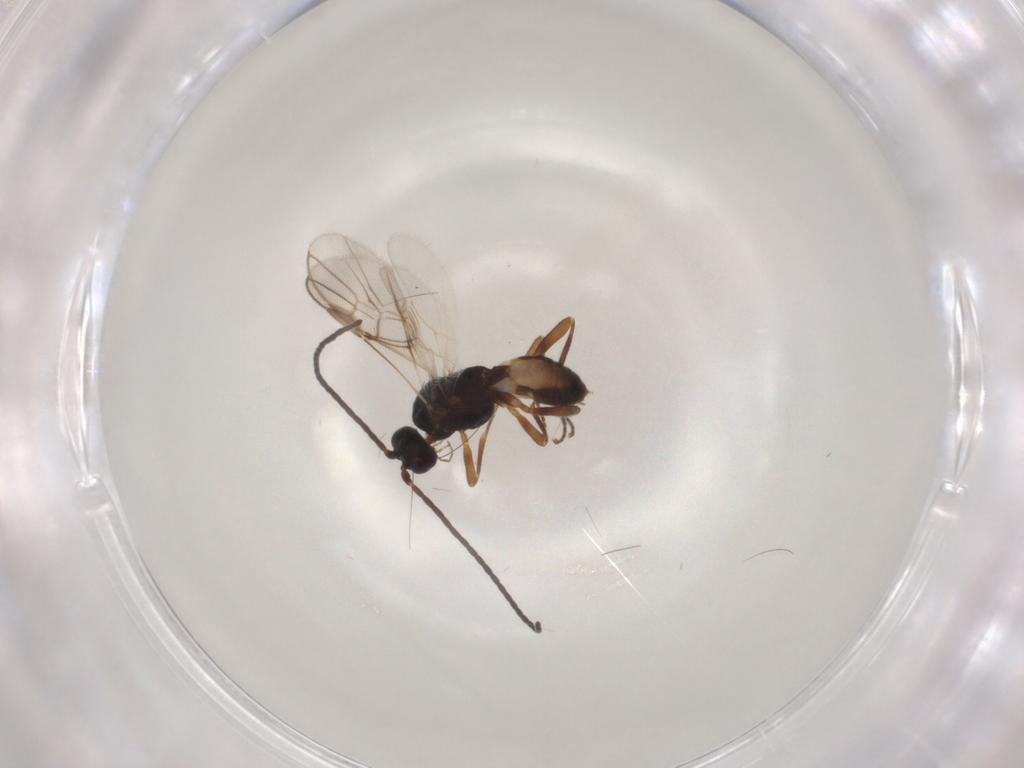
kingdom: Animalia
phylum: Arthropoda
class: Insecta
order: Hymenoptera
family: Braconidae
